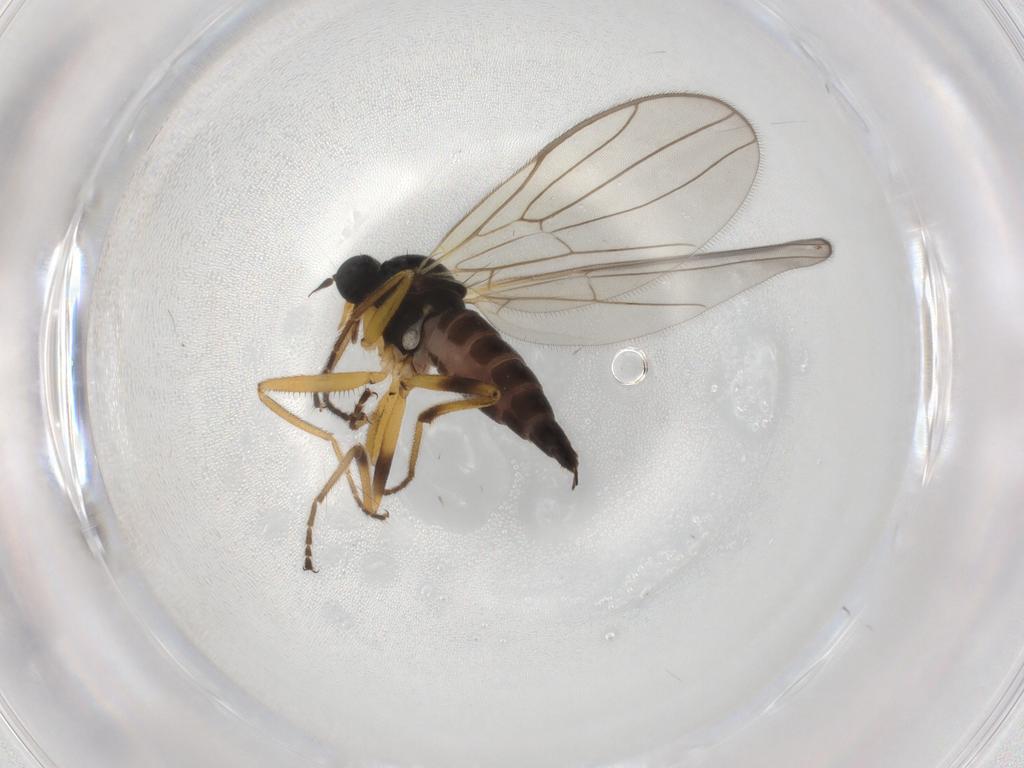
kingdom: Animalia
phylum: Arthropoda
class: Insecta
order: Diptera
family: Hybotidae
